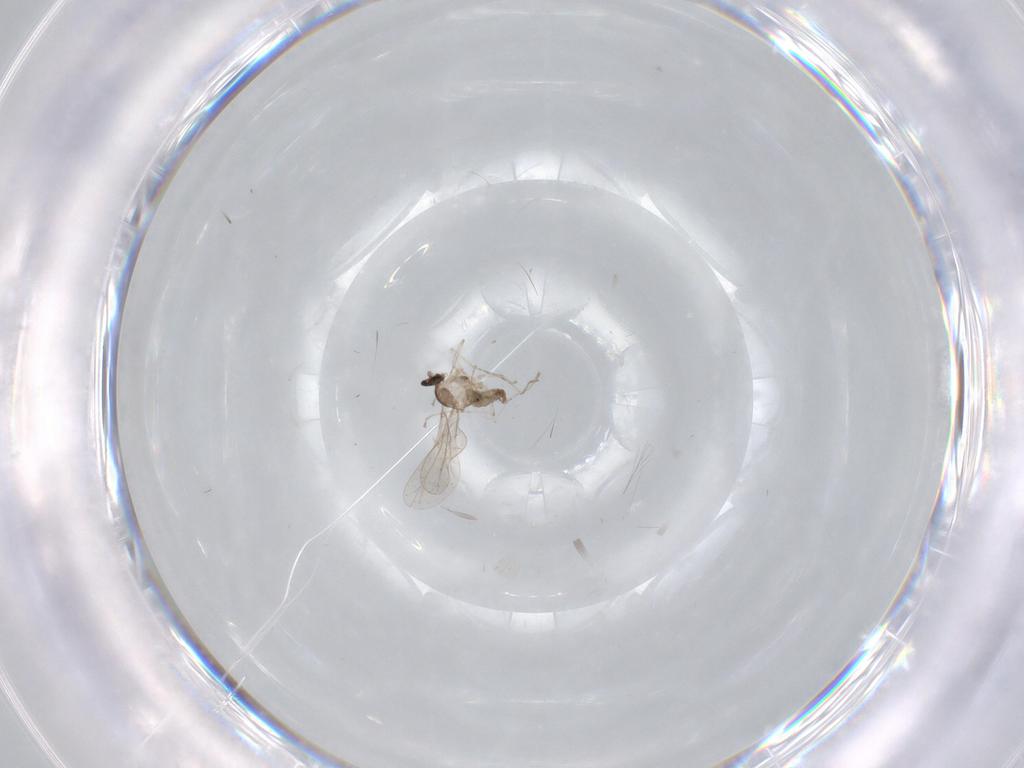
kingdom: Animalia
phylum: Arthropoda
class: Insecta
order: Diptera
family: Cecidomyiidae
